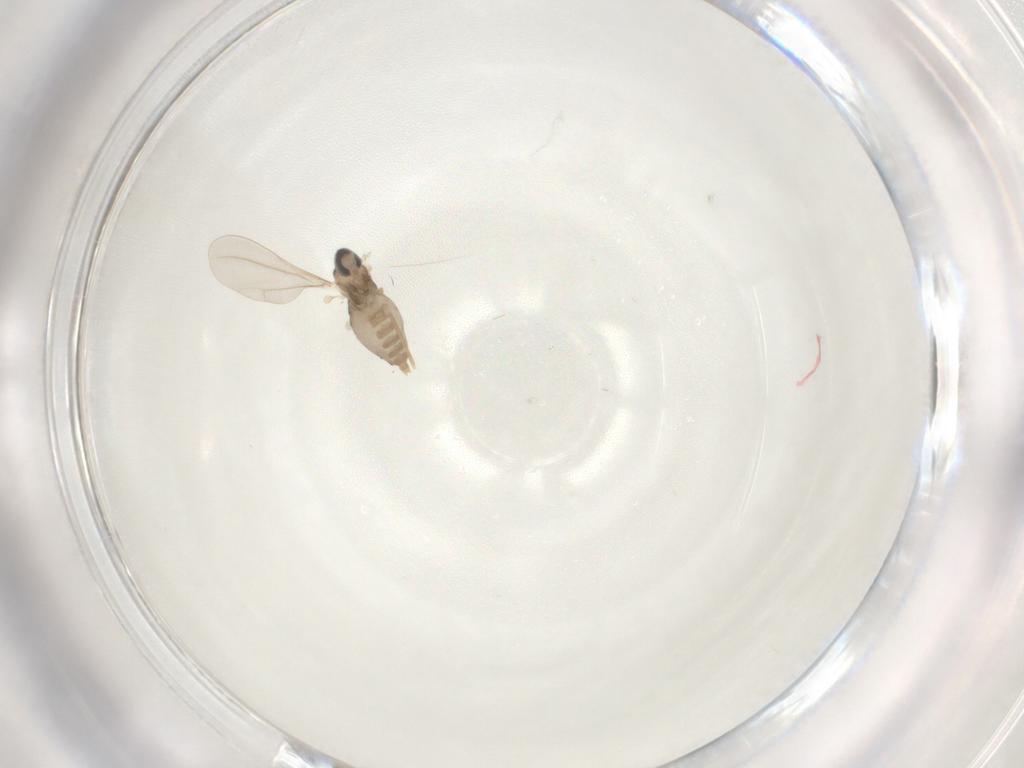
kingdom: Animalia
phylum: Arthropoda
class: Insecta
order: Diptera
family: Cecidomyiidae
